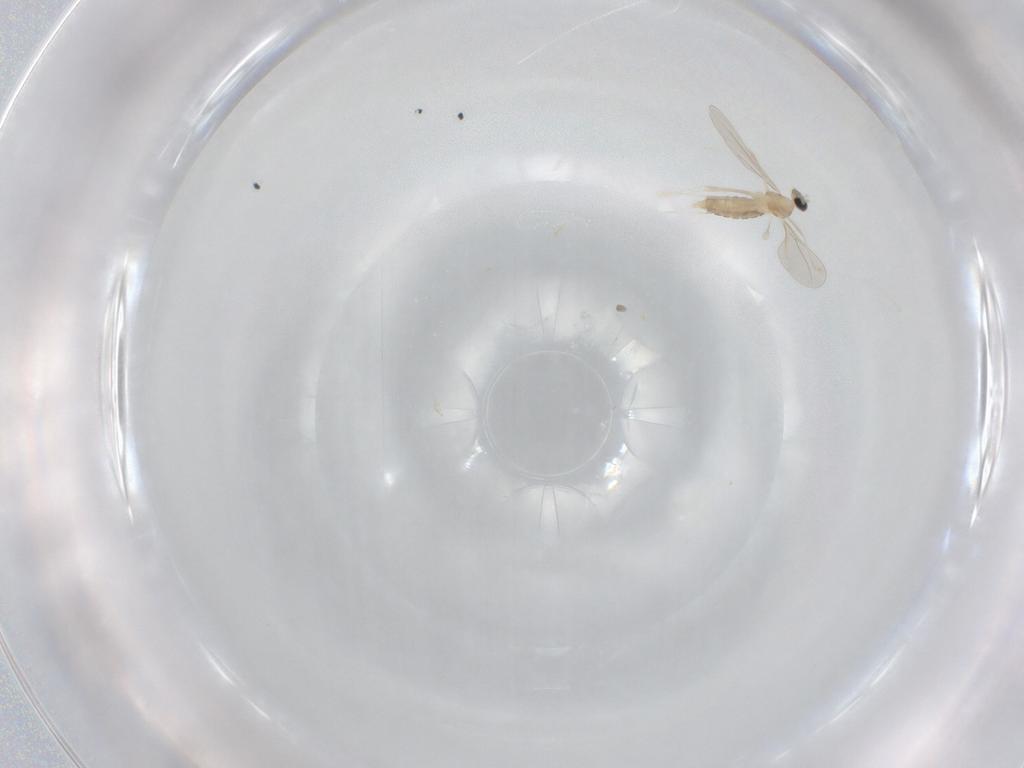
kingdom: Animalia
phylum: Arthropoda
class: Insecta
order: Diptera
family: Cecidomyiidae
